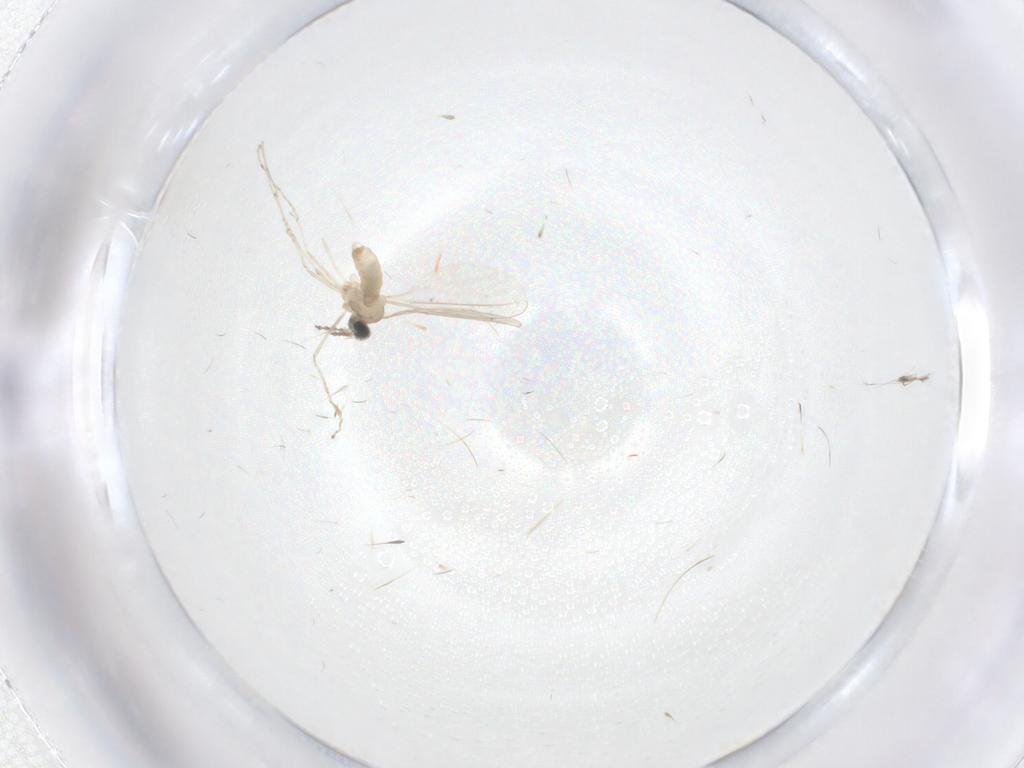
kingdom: Animalia
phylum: Arthropoda
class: Insecta
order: Diptera
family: Cecidomyiidae
